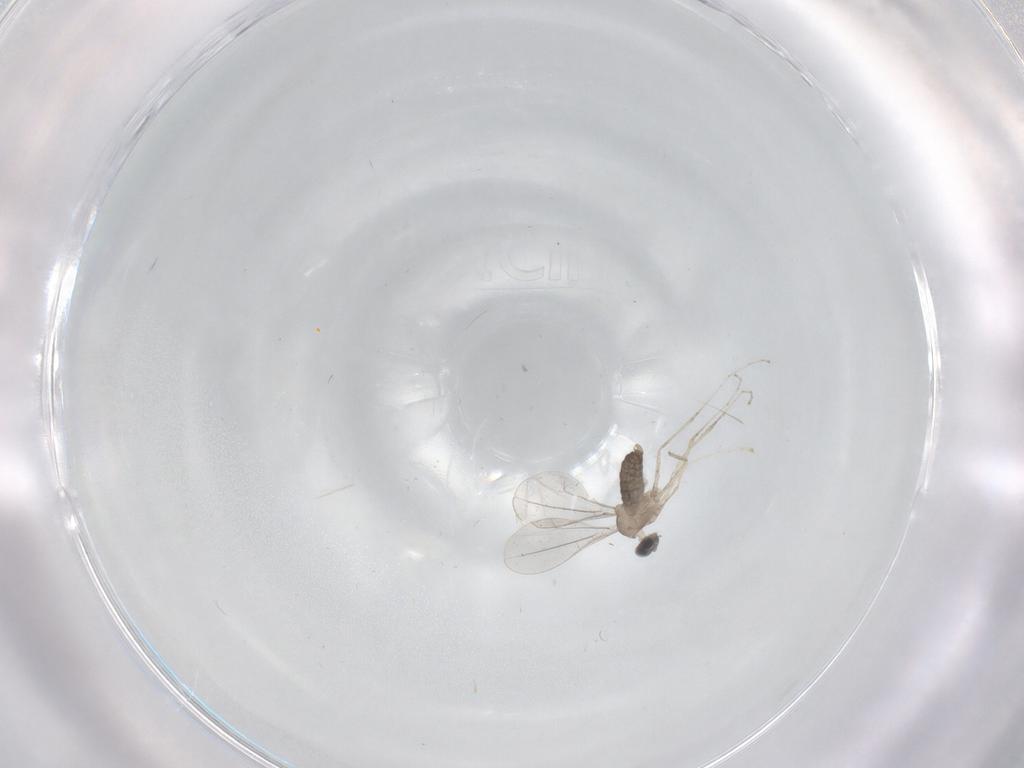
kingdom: Animalia
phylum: Arthropoda
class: Insecta
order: Diptera
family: Cecidomyiidae
